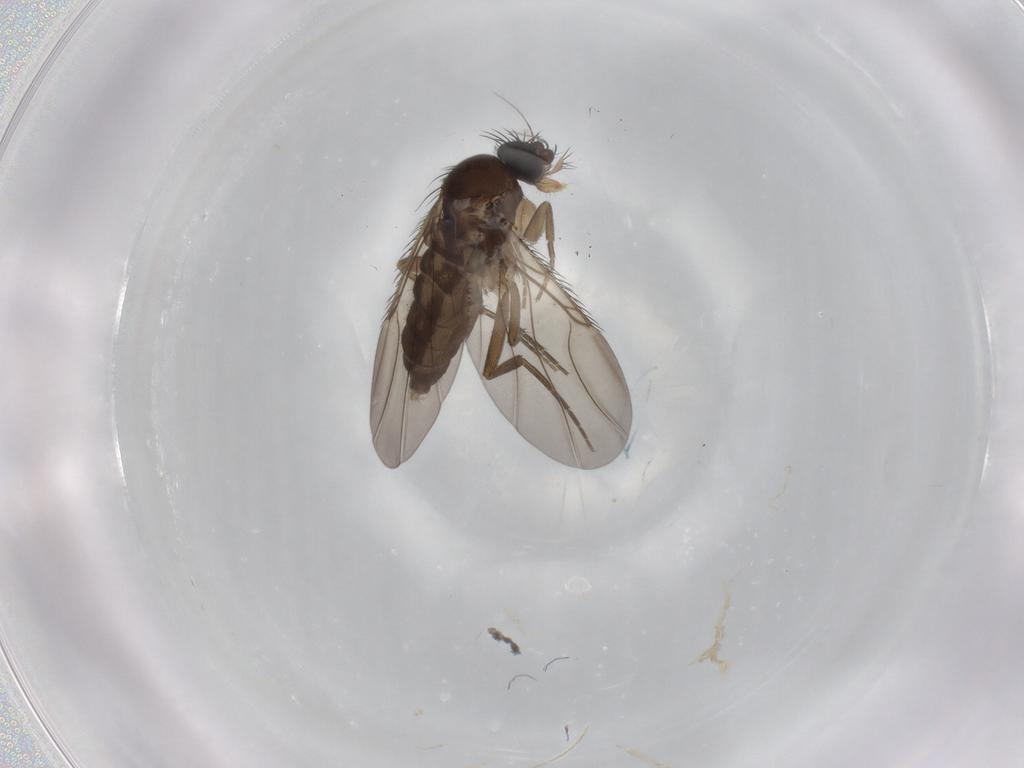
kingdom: Animalia
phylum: Arthropoda
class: Insecta
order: Diptera
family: Phoridae
